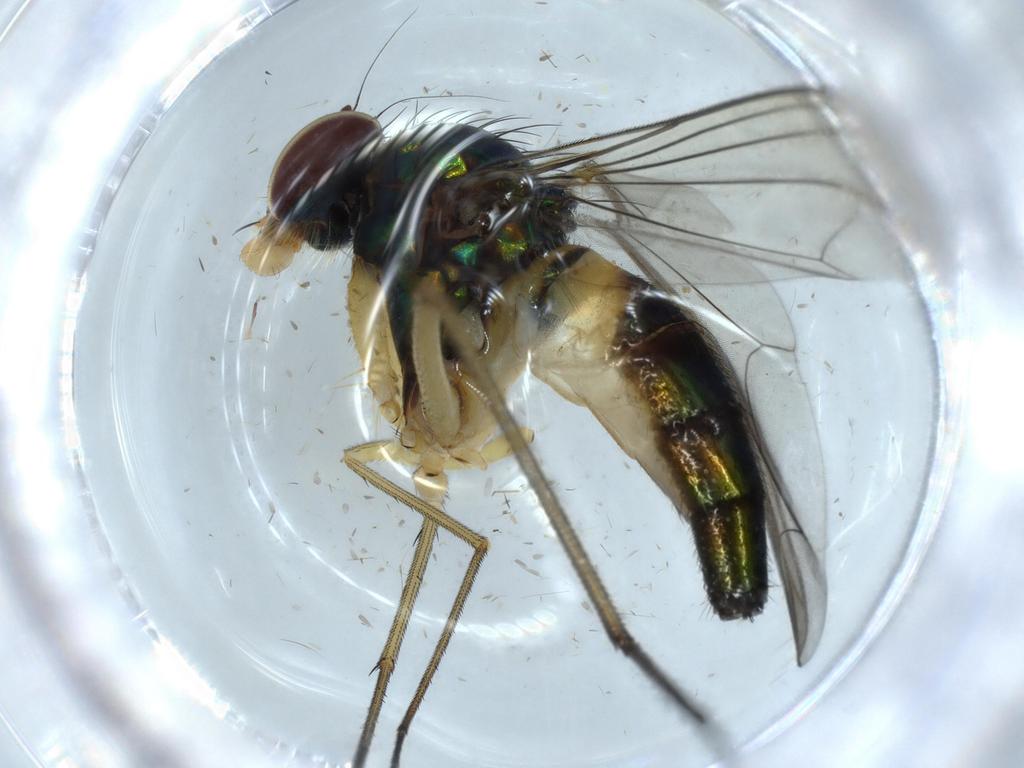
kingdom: Animalia
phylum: Arthropoda
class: Insecta
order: Diptera
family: Dolichopodidae
